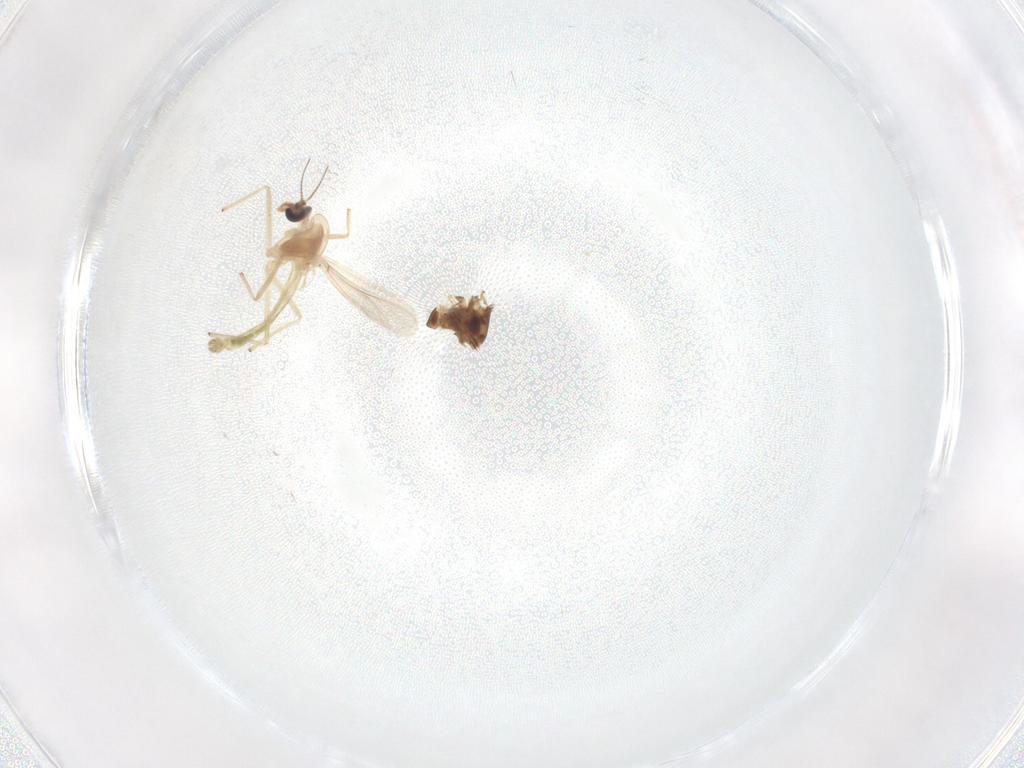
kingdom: Animalia
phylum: Arthropoda
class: Insecta
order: Diptera
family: Chironomidae
